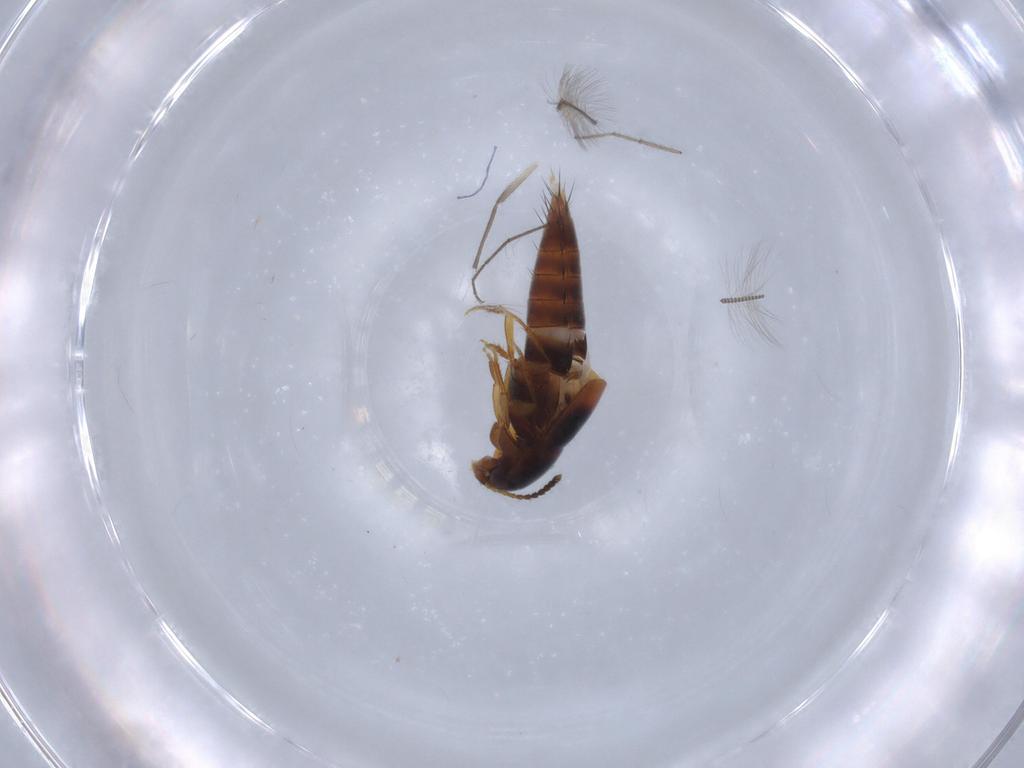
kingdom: Animalia
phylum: Arthropoda
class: Insecta
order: Coleoptera
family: Staphylinidae
